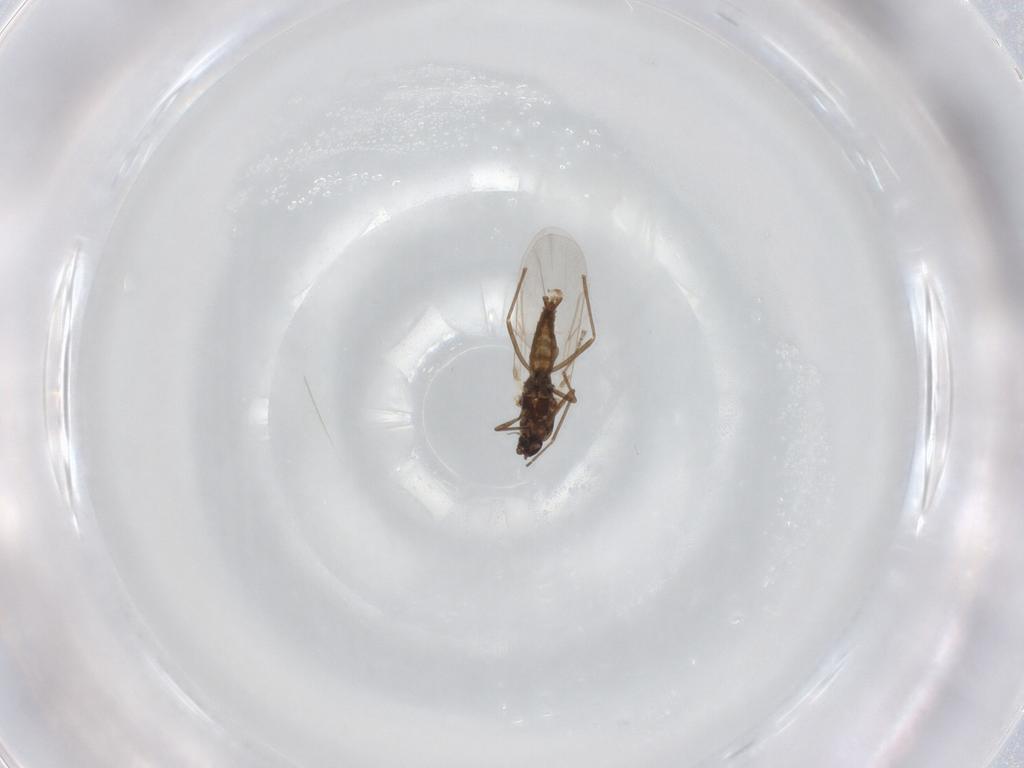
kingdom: Animalia
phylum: Arthropoda
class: Insecta
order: Diptera
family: Cecidomyiidae
